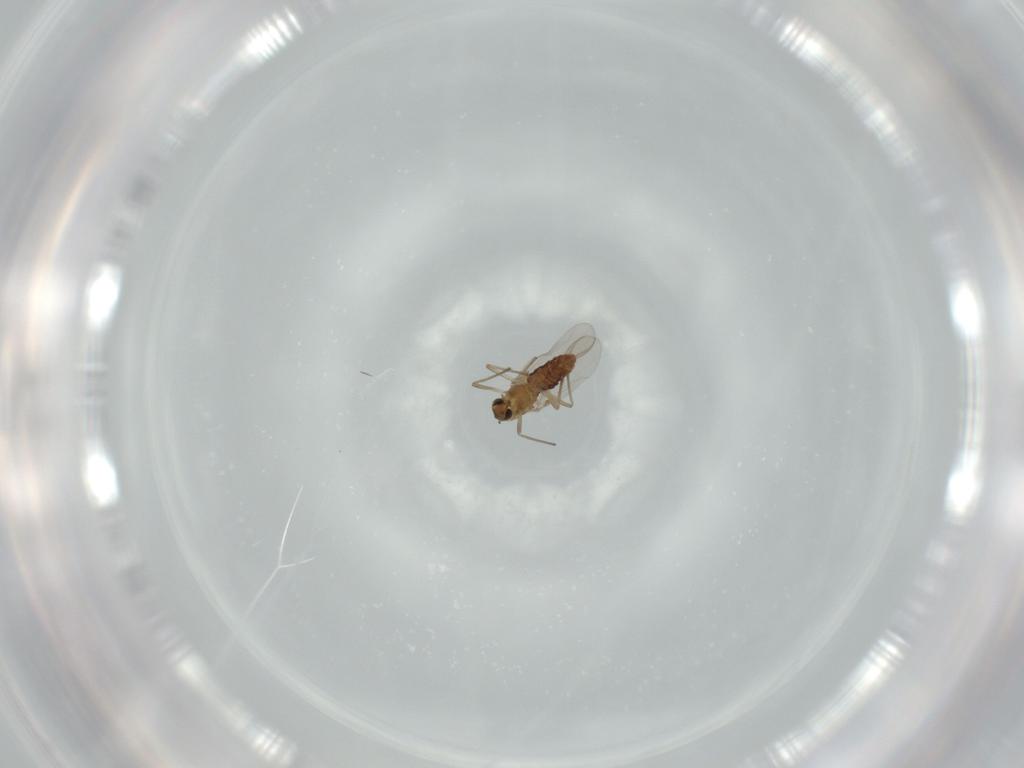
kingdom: Animalia
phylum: Arthropoda
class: Insecta
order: Diptera
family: Chironomidae
